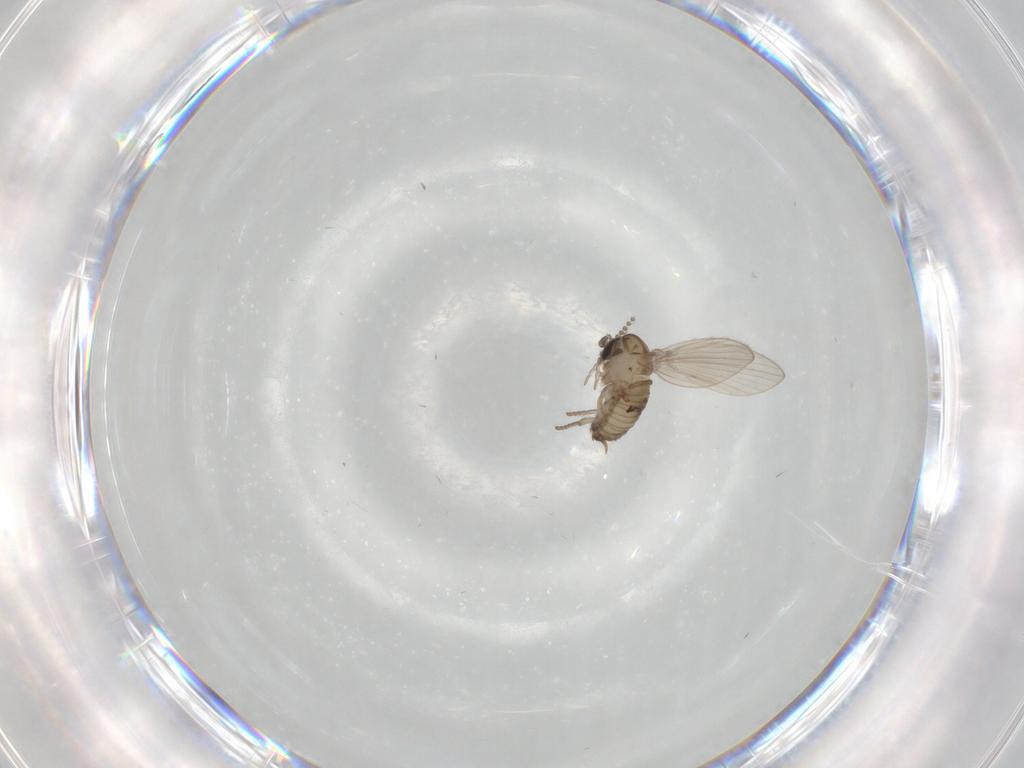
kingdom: Animalia
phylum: Arthropoda
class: Insecta
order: Diptera
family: Psychodidae
